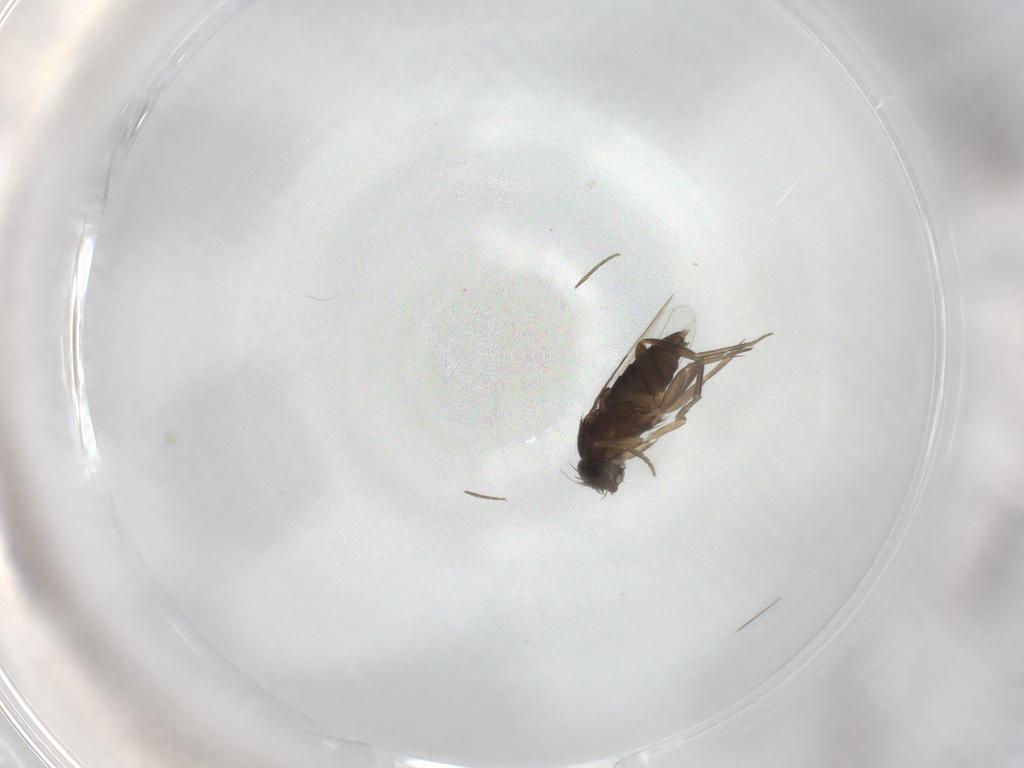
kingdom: Animalia
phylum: Arthropoda
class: Insecta
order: Diptera
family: Phoridae
